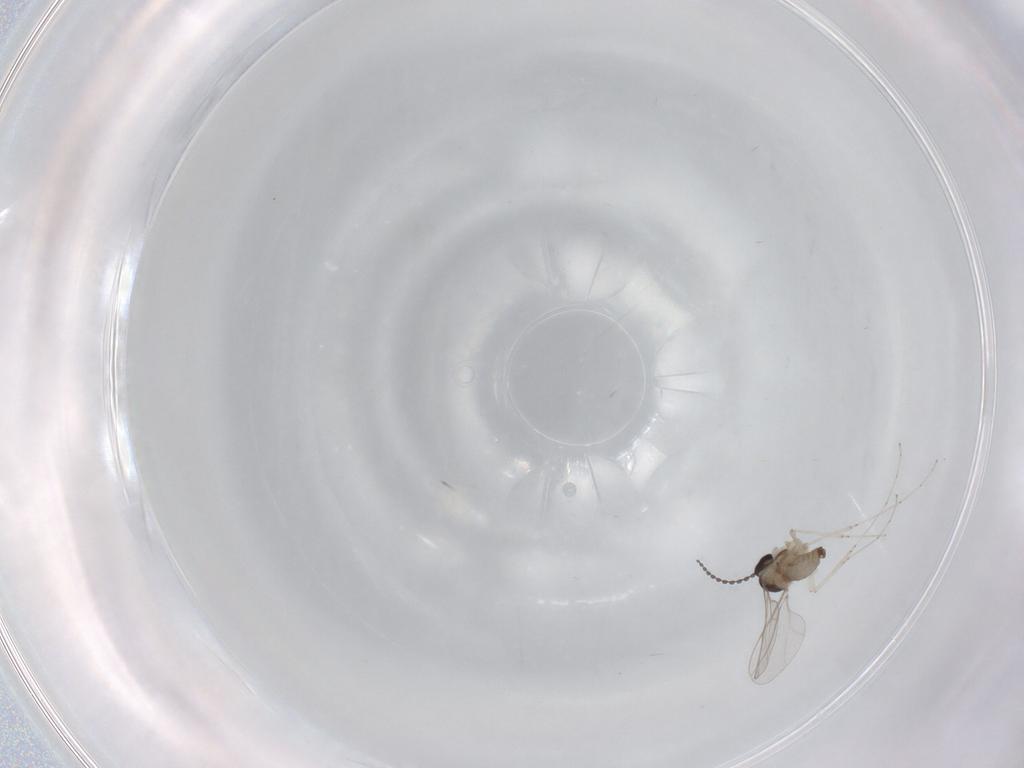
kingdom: Animalia
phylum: Arthropoda
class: Insecta
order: Diptera
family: Cecidomyiidae
